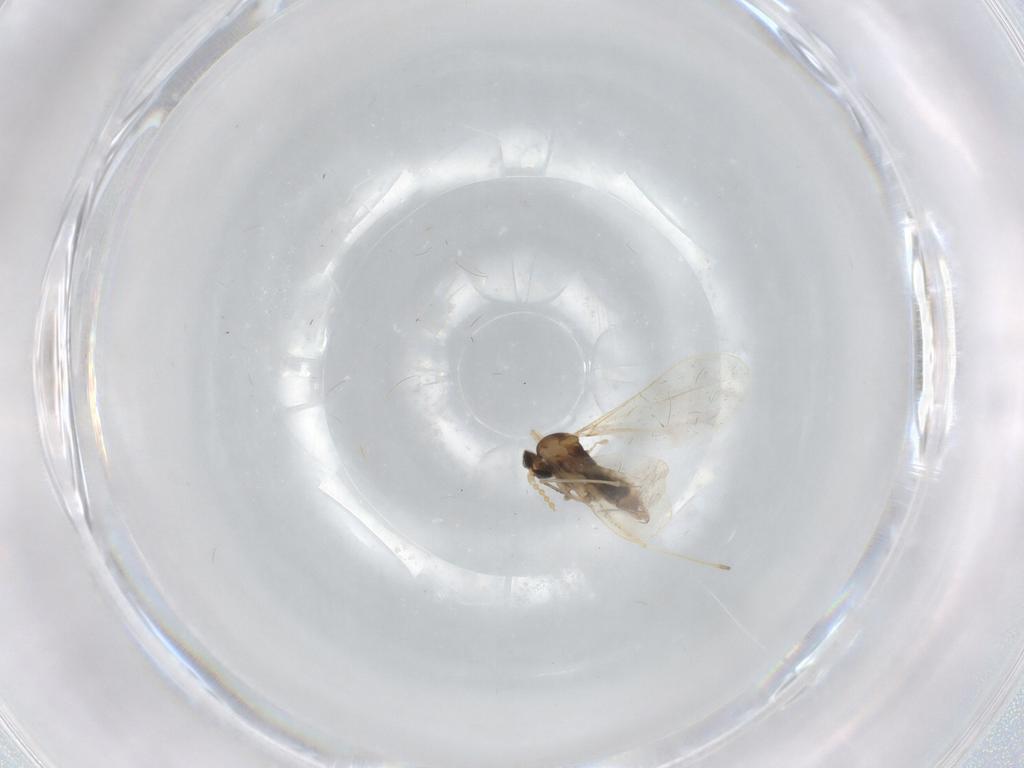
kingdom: Animalia
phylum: Arthropoda
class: Insecta
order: Diptera
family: Cecidomyiidae
